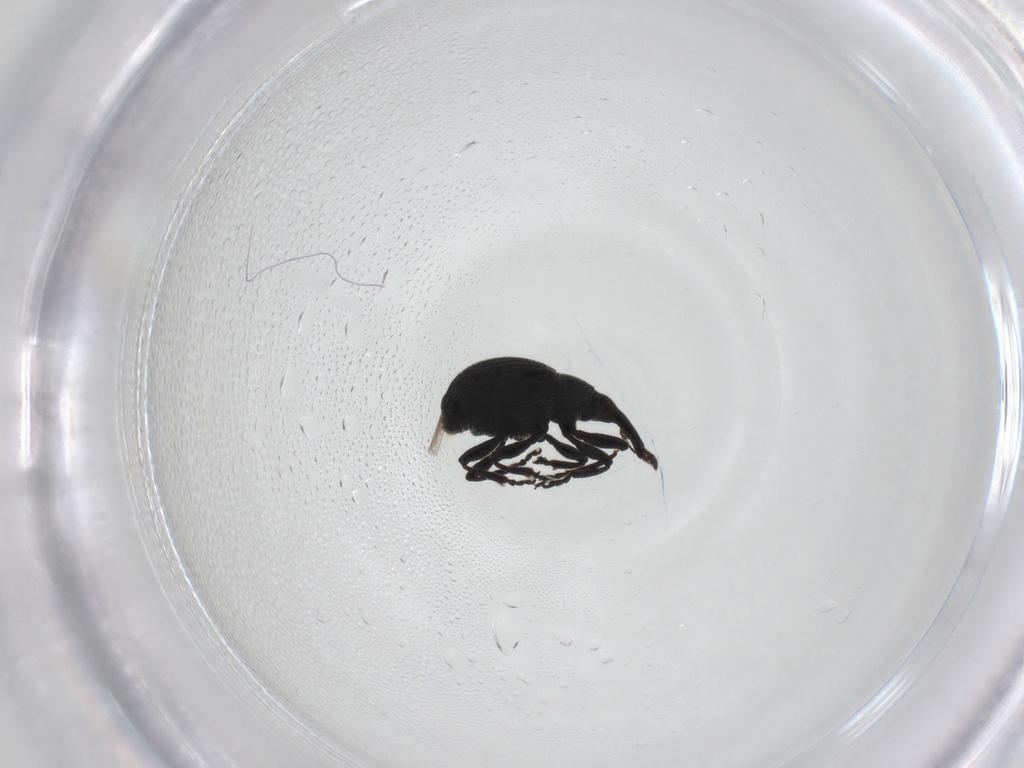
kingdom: Animalia
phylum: Arthropoda
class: Insecta
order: Coleoptera
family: Brentidae
